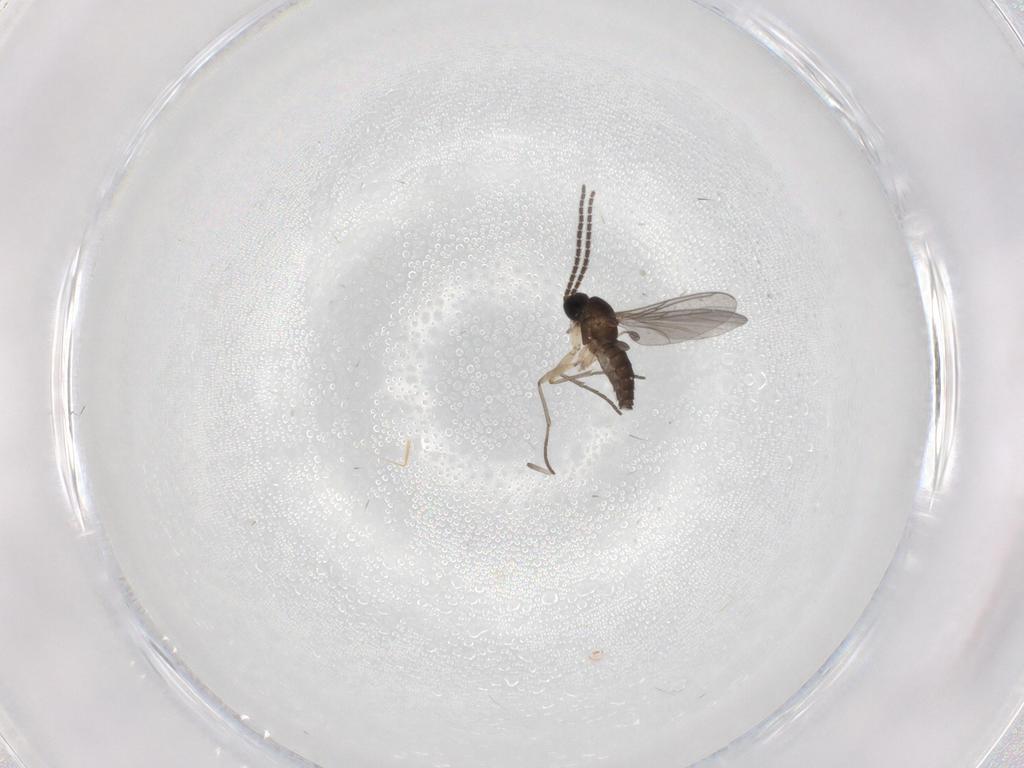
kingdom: Animalia
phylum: Arthropoda
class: Insecta
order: Diptera
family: Sciaridae
